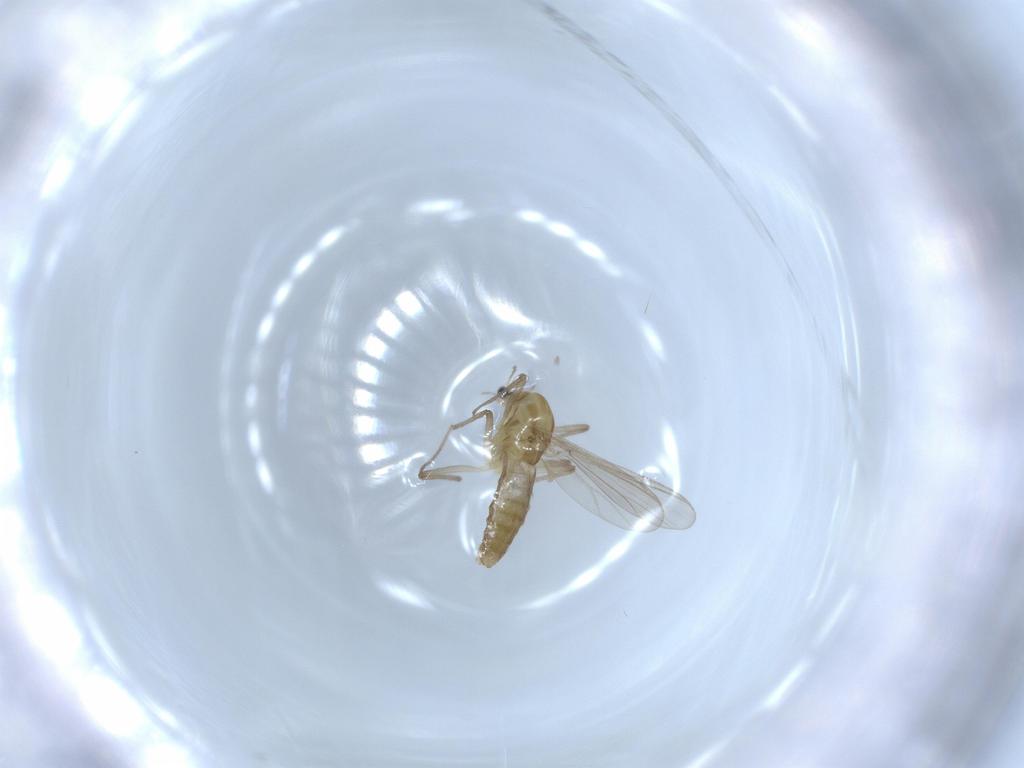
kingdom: Animalia
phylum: Arthropoda
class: Insecta
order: Diptera
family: Chironomidae
